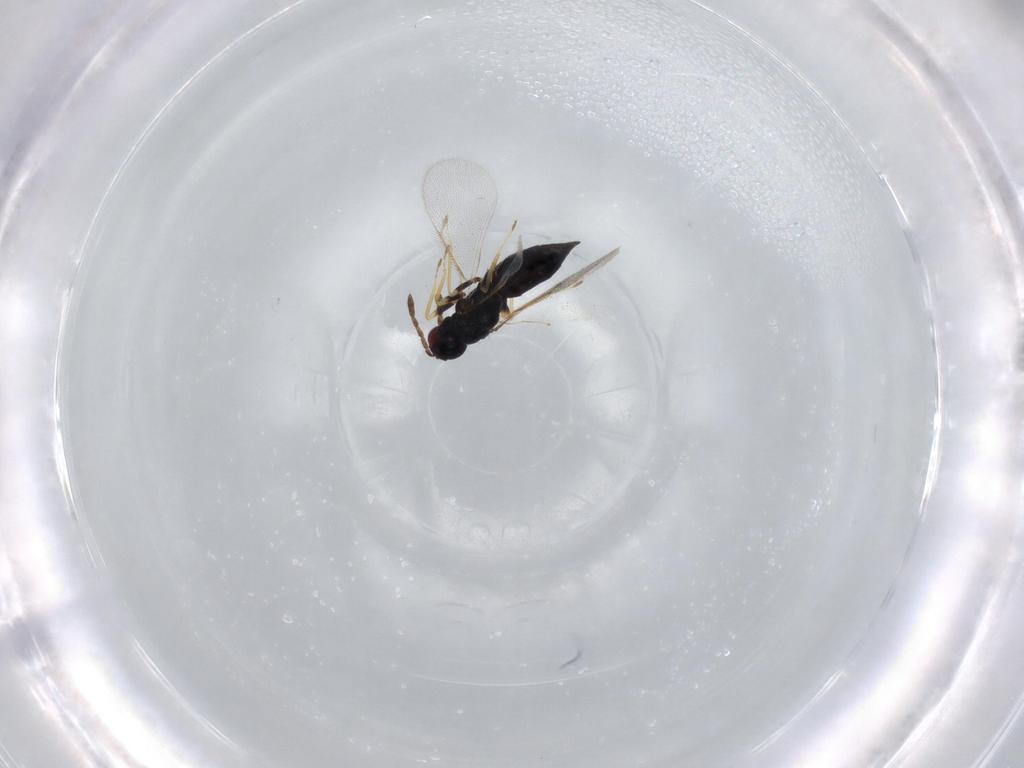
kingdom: Animalia
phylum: Arthropoda
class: Insecta
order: Hymenoptera
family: Eulophidae
